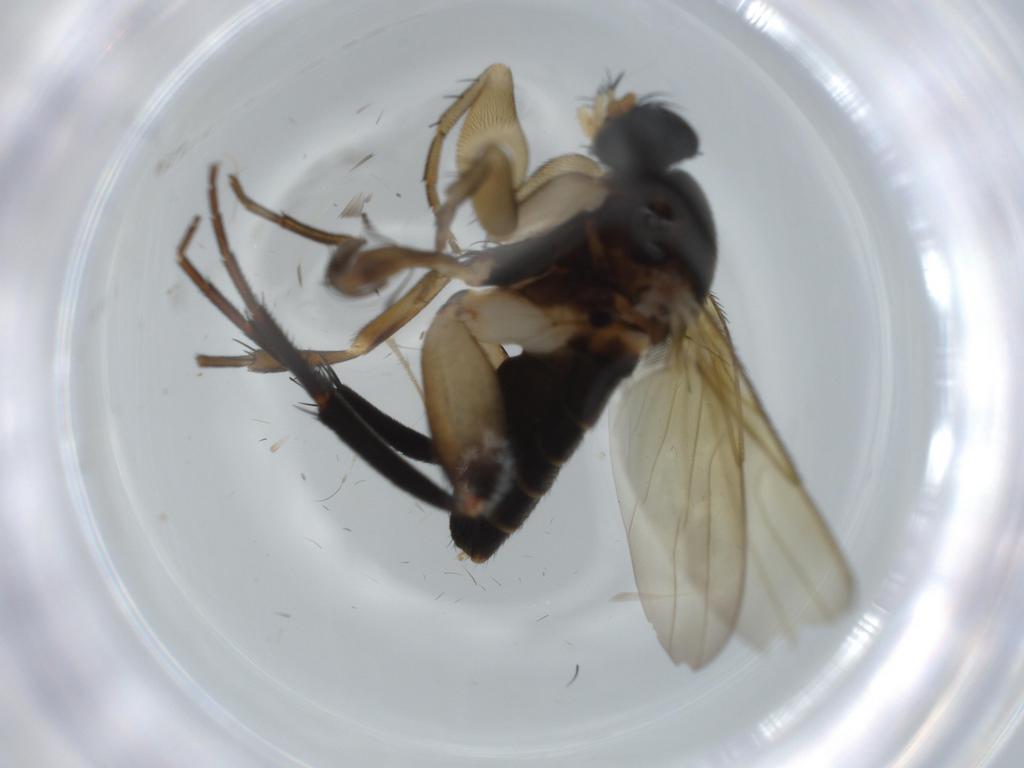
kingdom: Animalia
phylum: Arthropoda
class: Insecta
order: Diptera
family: Phoridae
